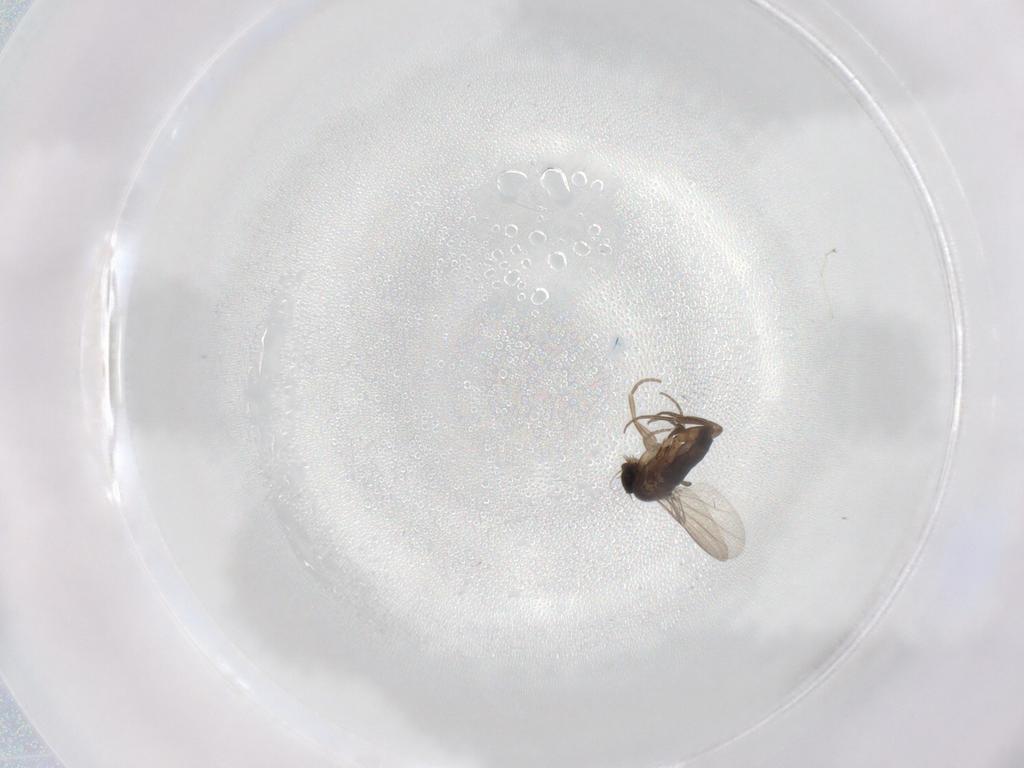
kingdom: Animalia
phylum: Arthropoda
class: Insecta
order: Diptera
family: Phoridae
